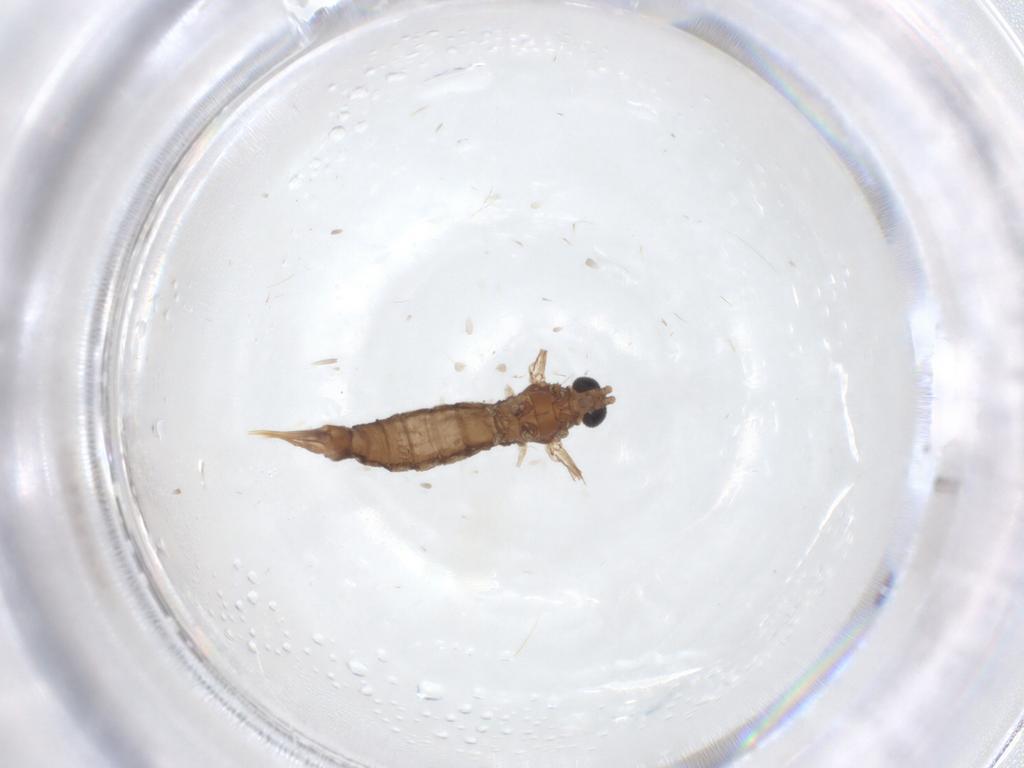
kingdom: Animalia
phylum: Arthropoda
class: Insecta
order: Diptera
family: Limoniidae
